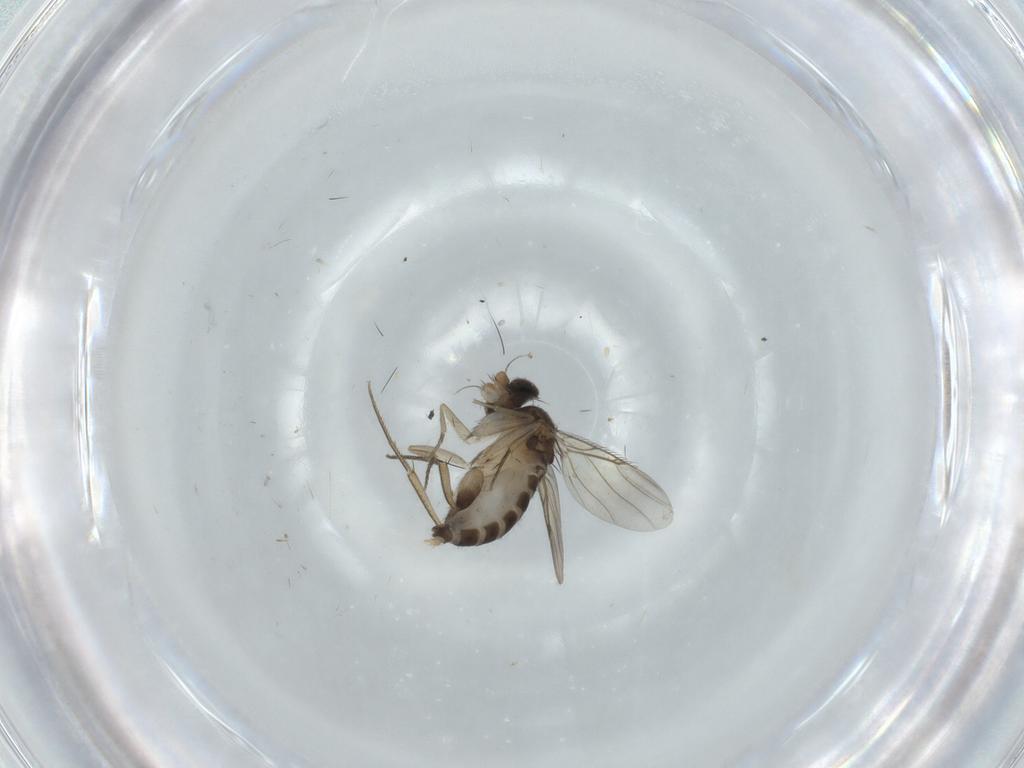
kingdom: Animalia
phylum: Arthropoda
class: Insecta
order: Diptera
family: Phoridae
